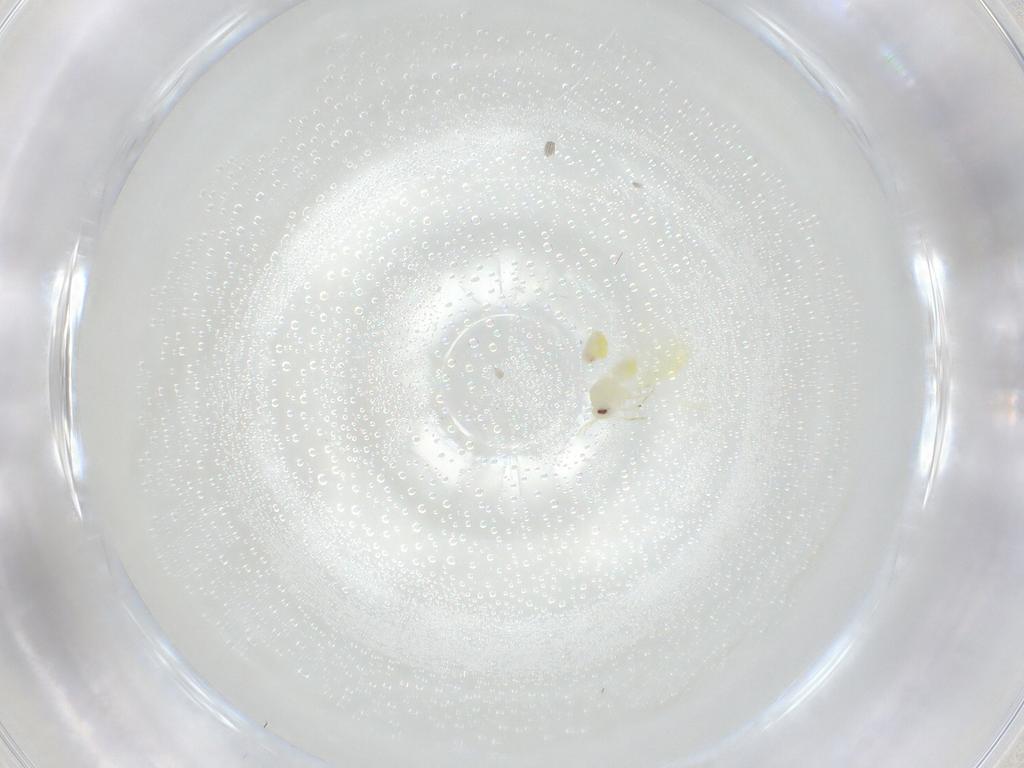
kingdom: Animalia
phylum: Arthropoda
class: Insecta
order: Hemiptera
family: Aleyrodidae
